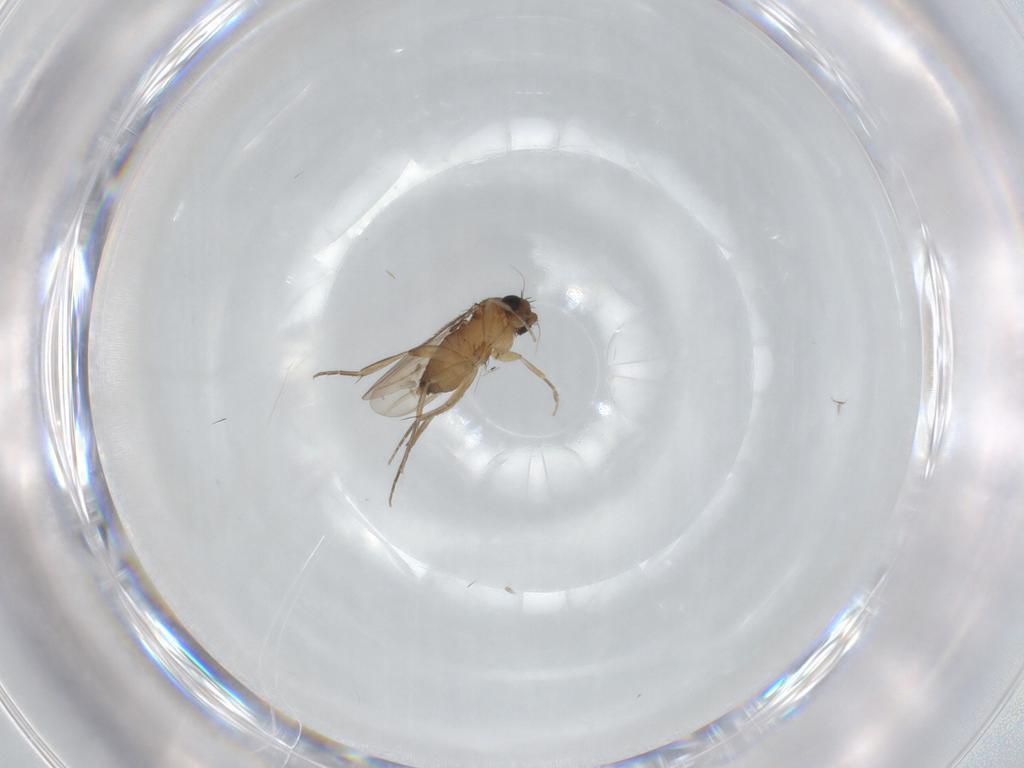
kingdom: Animalia
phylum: Arthropoda
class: Insecta
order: Diptera
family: Phoridae
